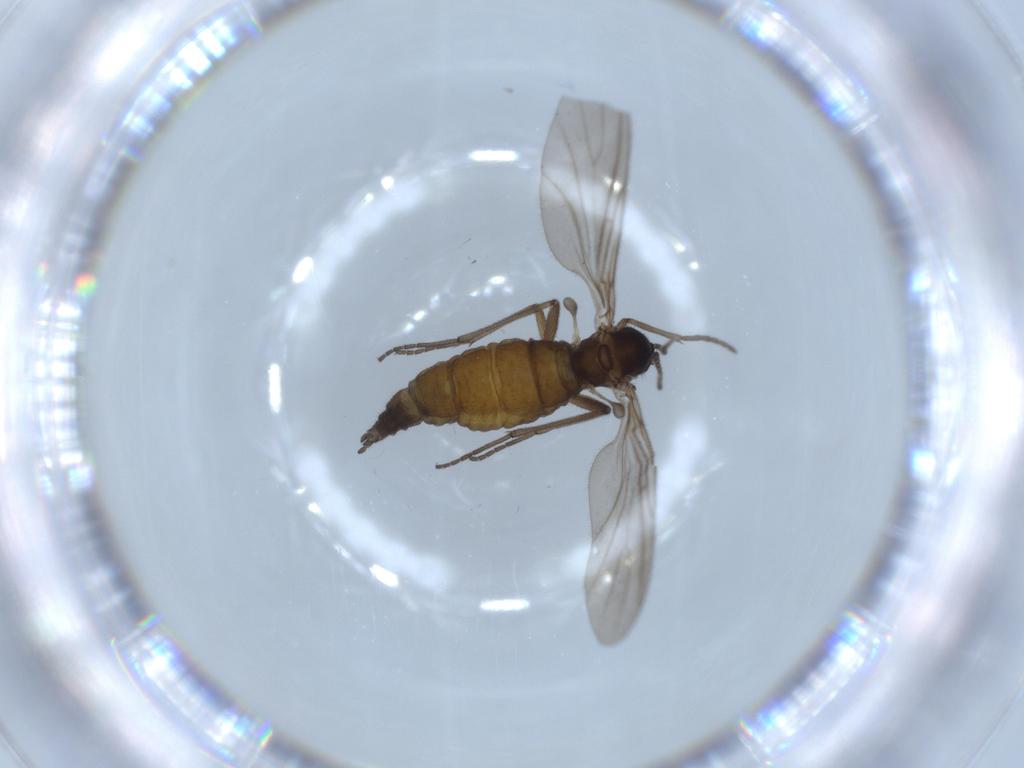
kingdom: Animalia
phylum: Arthropoda
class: Insecta
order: Diptera
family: Sciaridae
